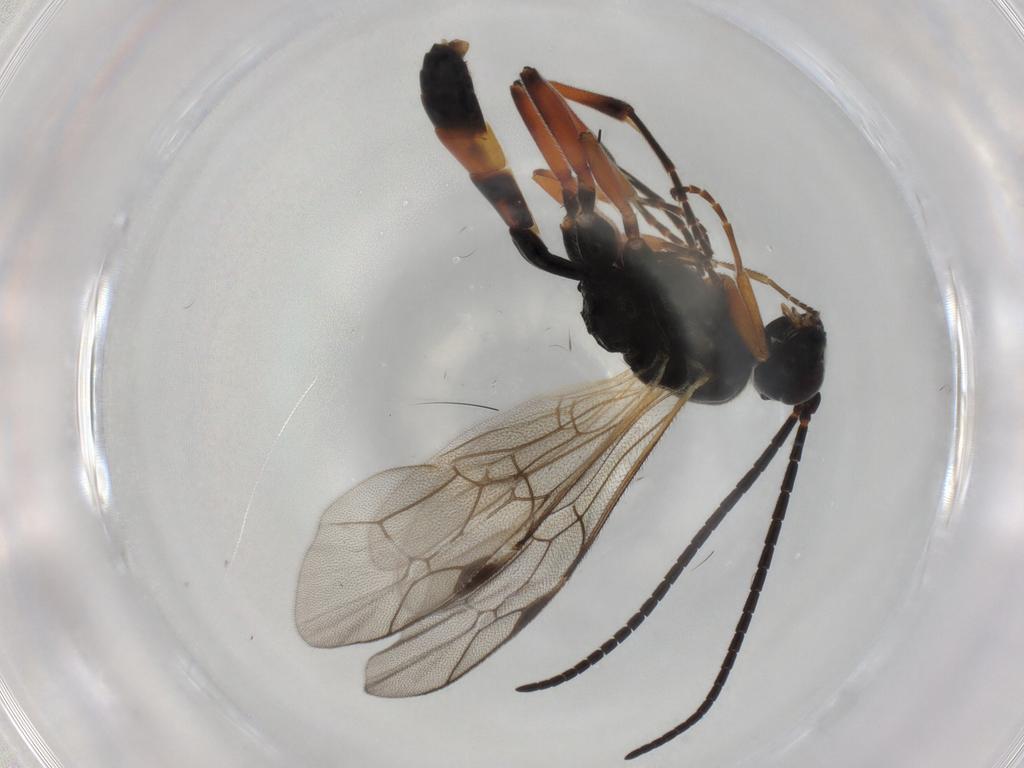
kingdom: Animalia
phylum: Arthropoda
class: Insecta
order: Hymenoptera
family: Ichneumonidae
